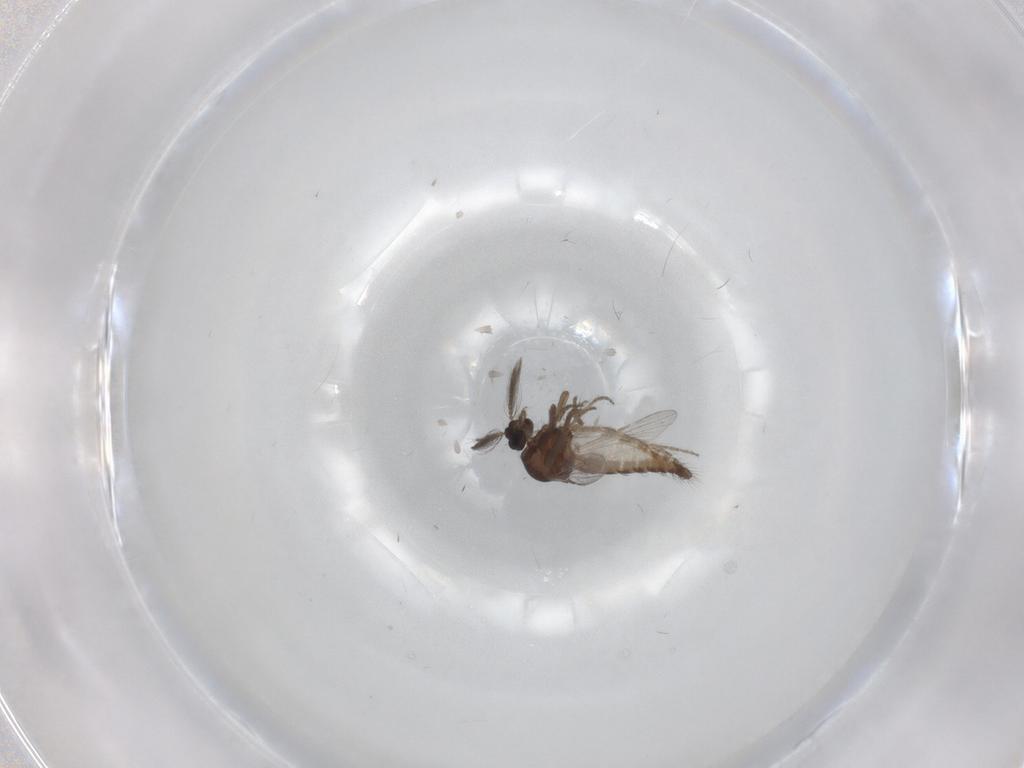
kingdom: Animalia
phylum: Arthropoda
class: Insecta
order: Diptera
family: Ceratopogonidae
